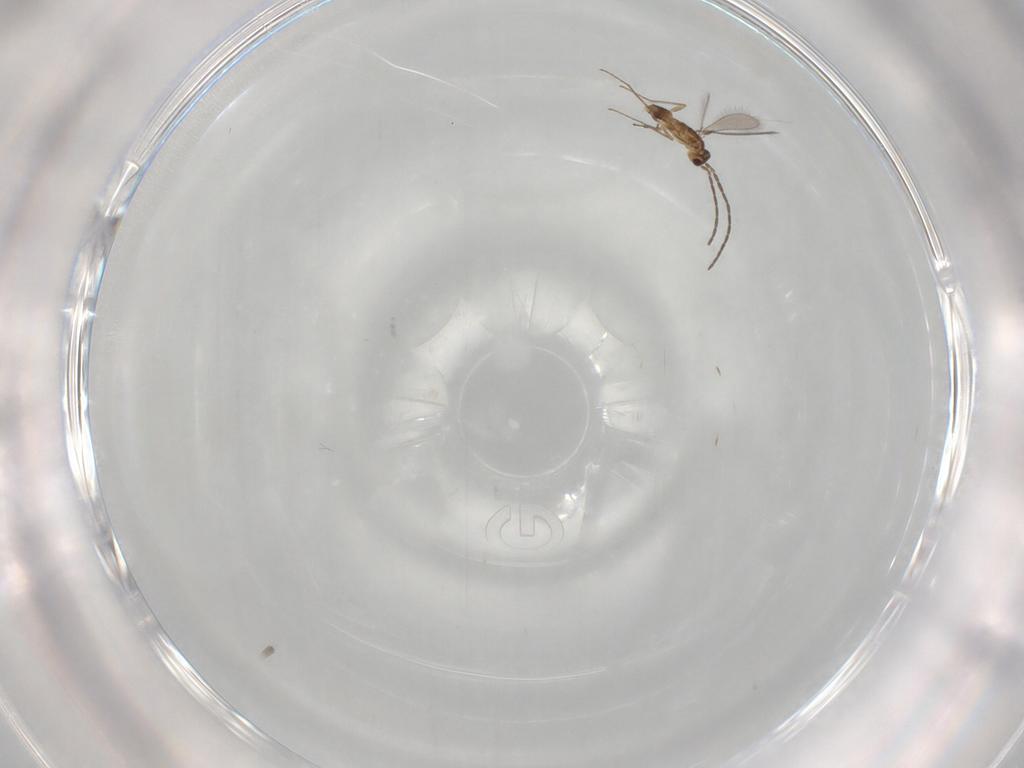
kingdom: Animalia
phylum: Arthropoda
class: Insecta
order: Hymenoptera
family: Mymaridae
